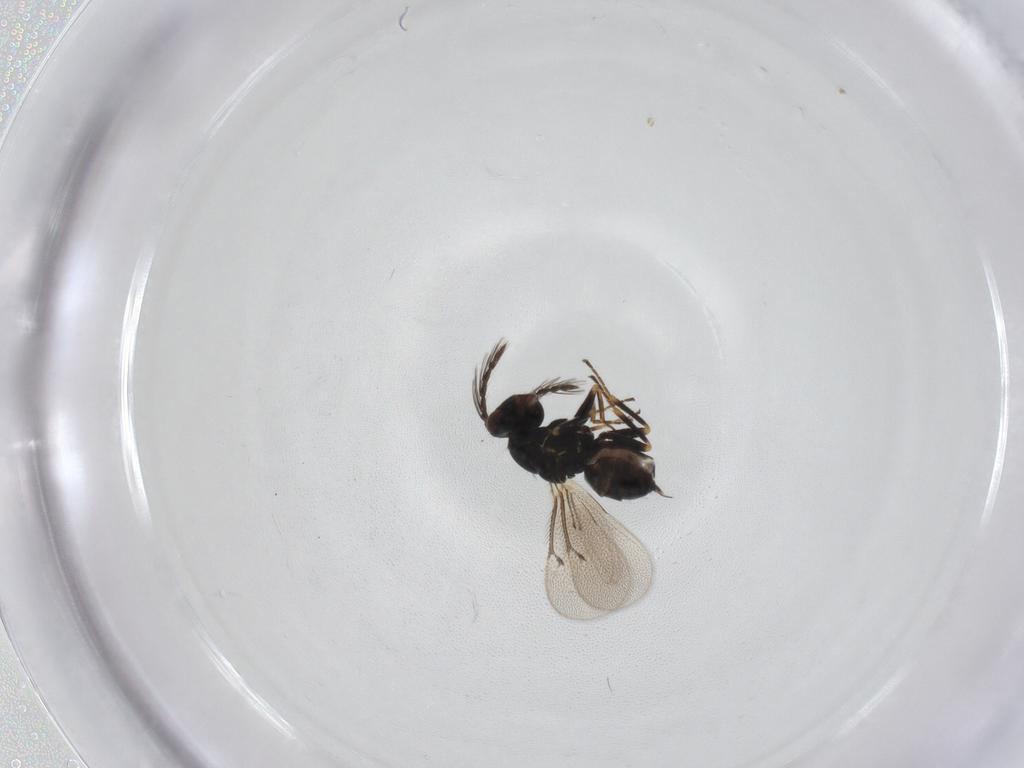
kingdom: Animalia
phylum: Arthropoda
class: Insecta
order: Hymenoptera
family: Eulophidae
